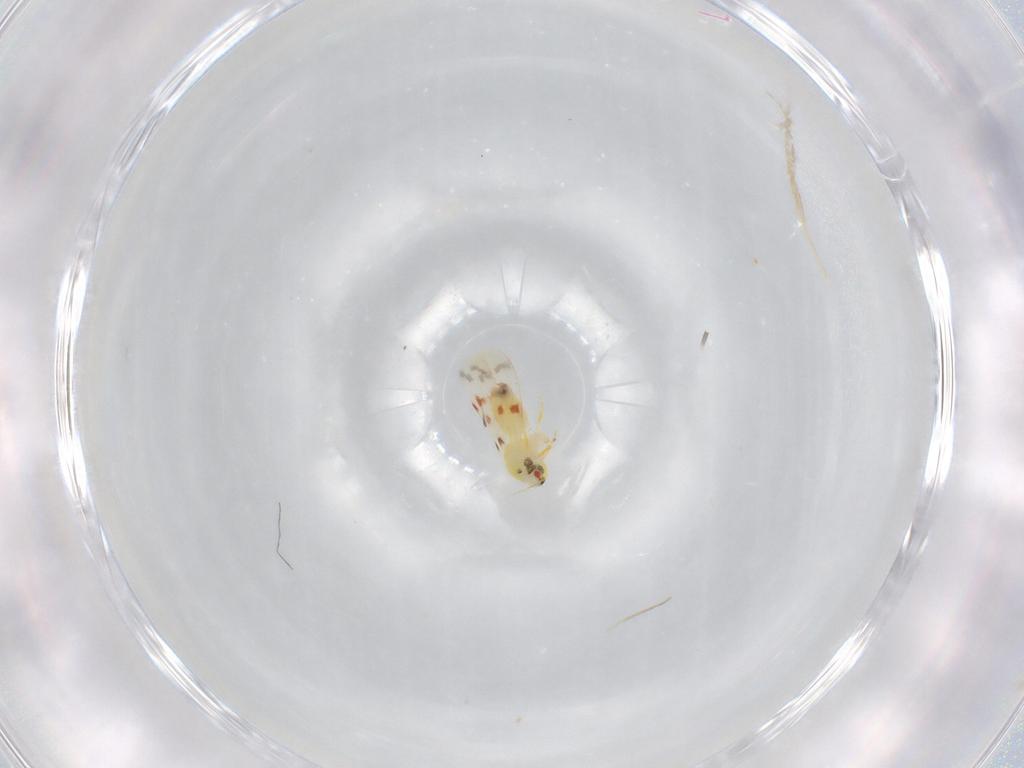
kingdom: Animalia
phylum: Arthropoda
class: Insecta
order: Hemiptera
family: Aleyrodidae
